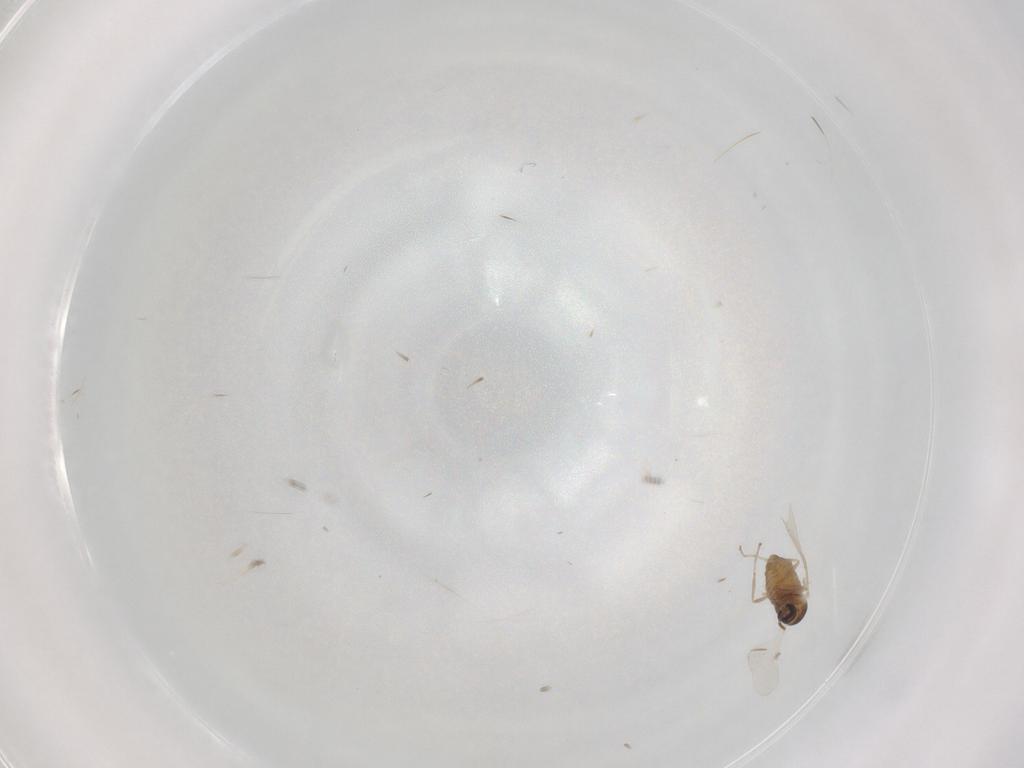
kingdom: Animalia
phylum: Arthropoda
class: Insecta
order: Diptera
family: Cecidomyiidae
